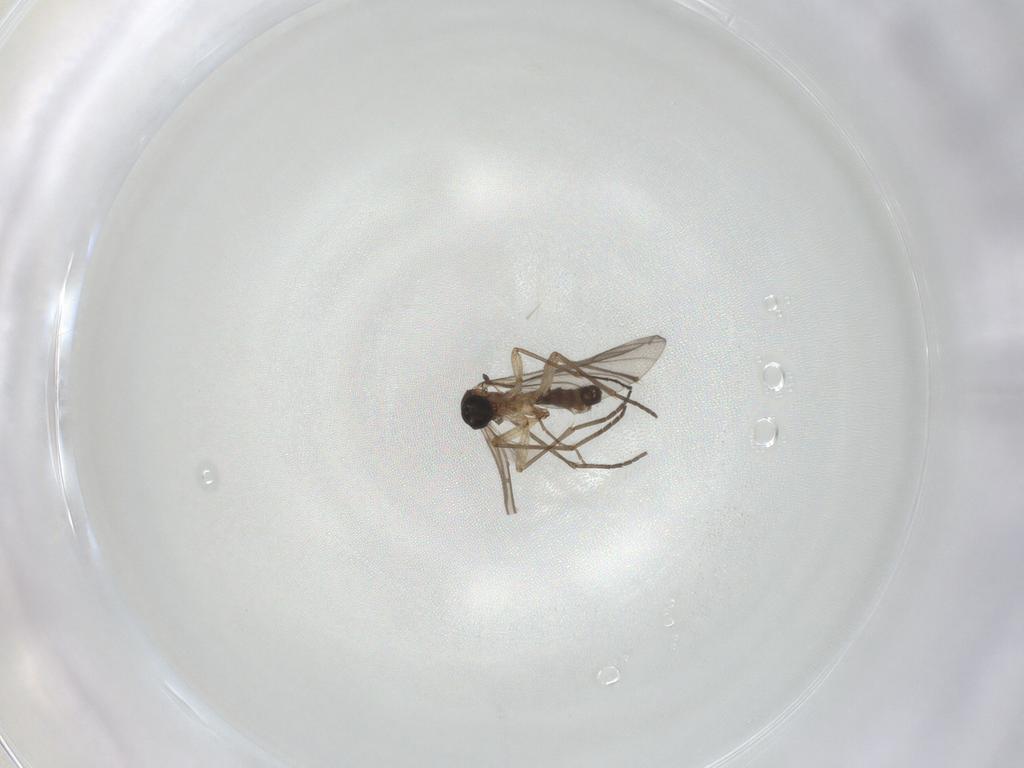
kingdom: Animalia
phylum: Arthropoda
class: Insecta
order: Diptera
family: Sciaridae
